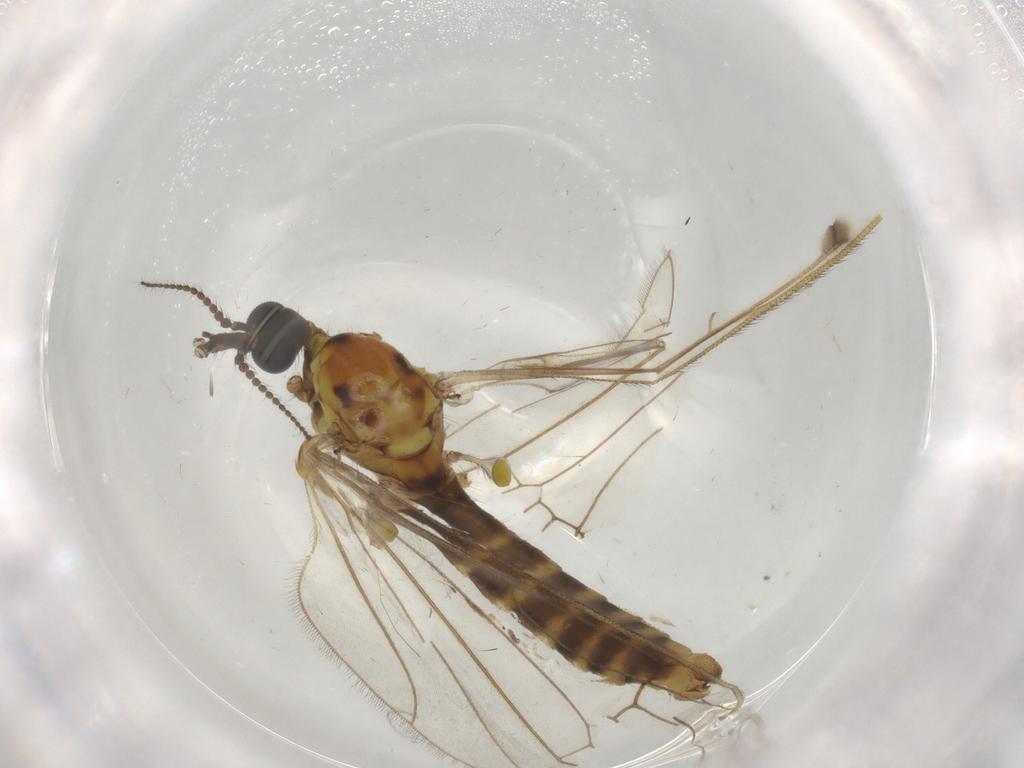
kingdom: Animalia
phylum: Arthropoda
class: Insecta
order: Diptera
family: Limoniidae
